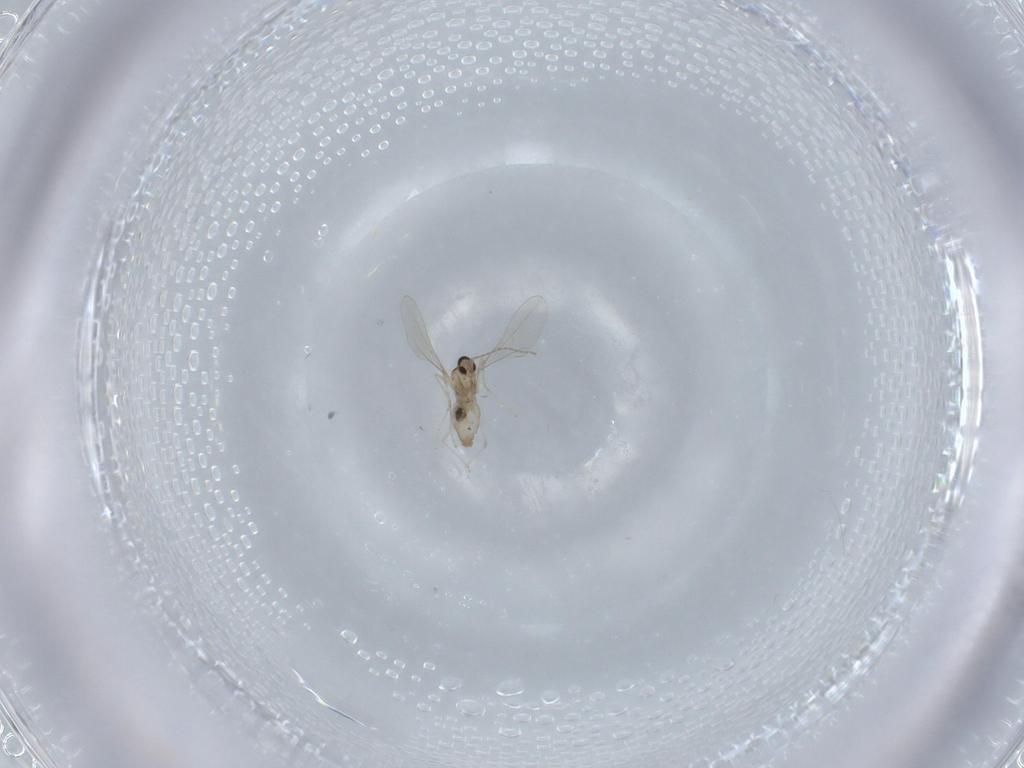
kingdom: Animalia
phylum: Arthropoda
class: Insecta
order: Diptera
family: Cecidomyiidae
